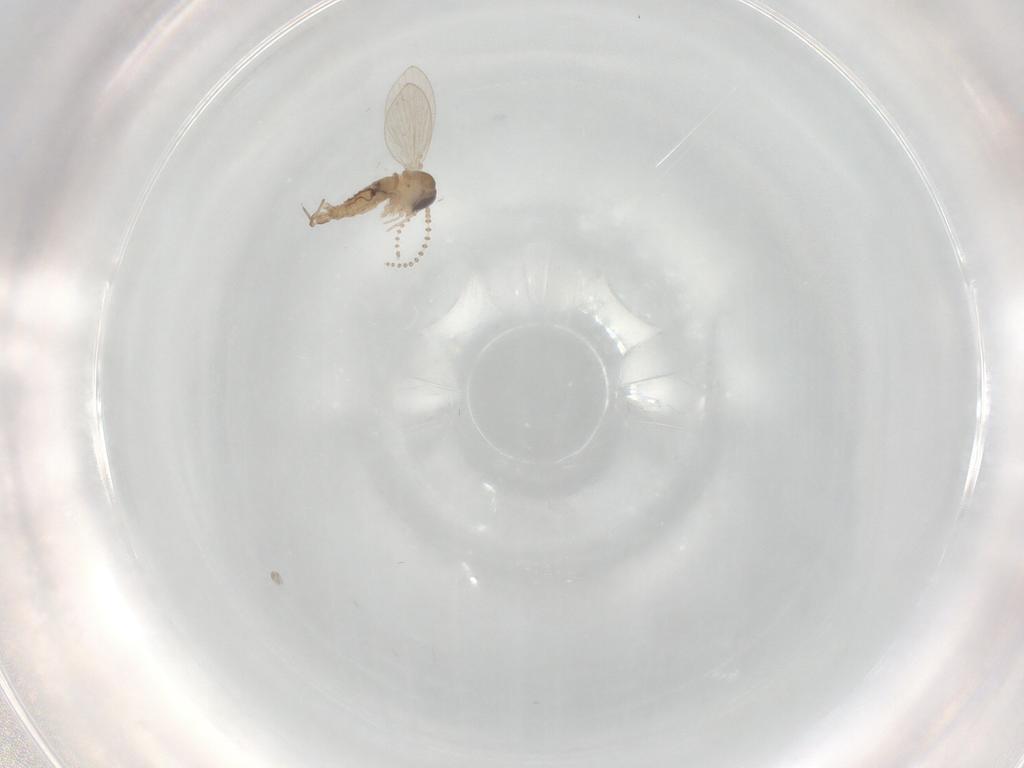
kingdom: Animalia
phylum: Arthropoda
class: Insecta
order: Diptera
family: Psychodidae
